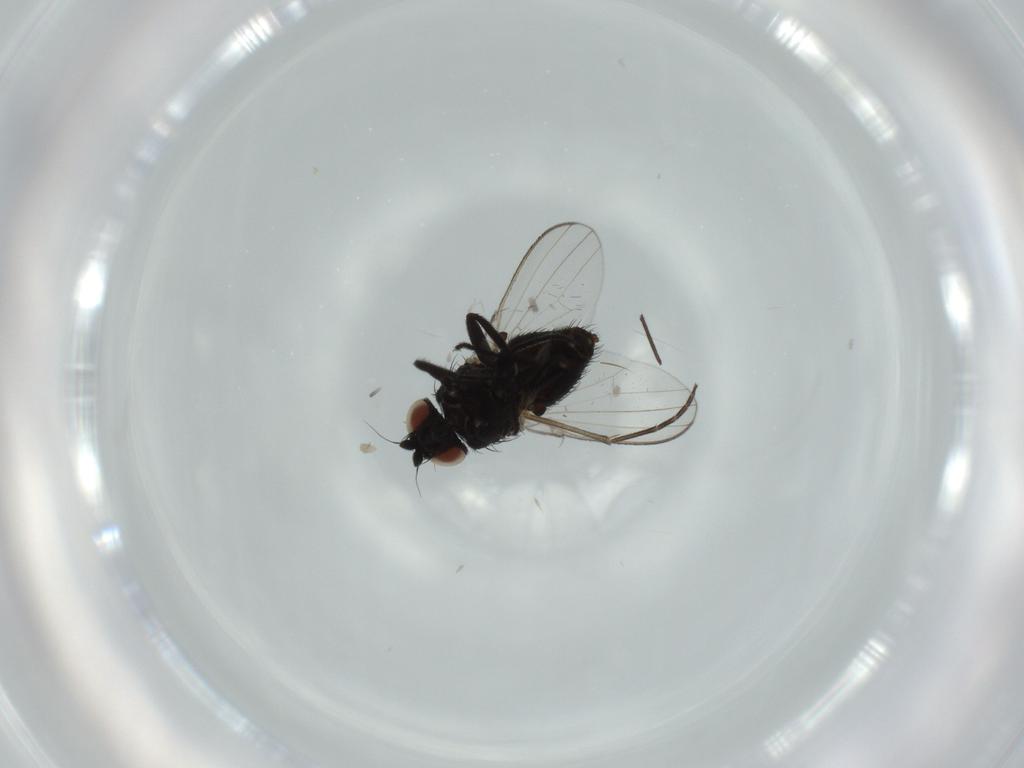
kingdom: Animalia
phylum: Arthropoda
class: Insecta
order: Diptera
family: Milichiidae
